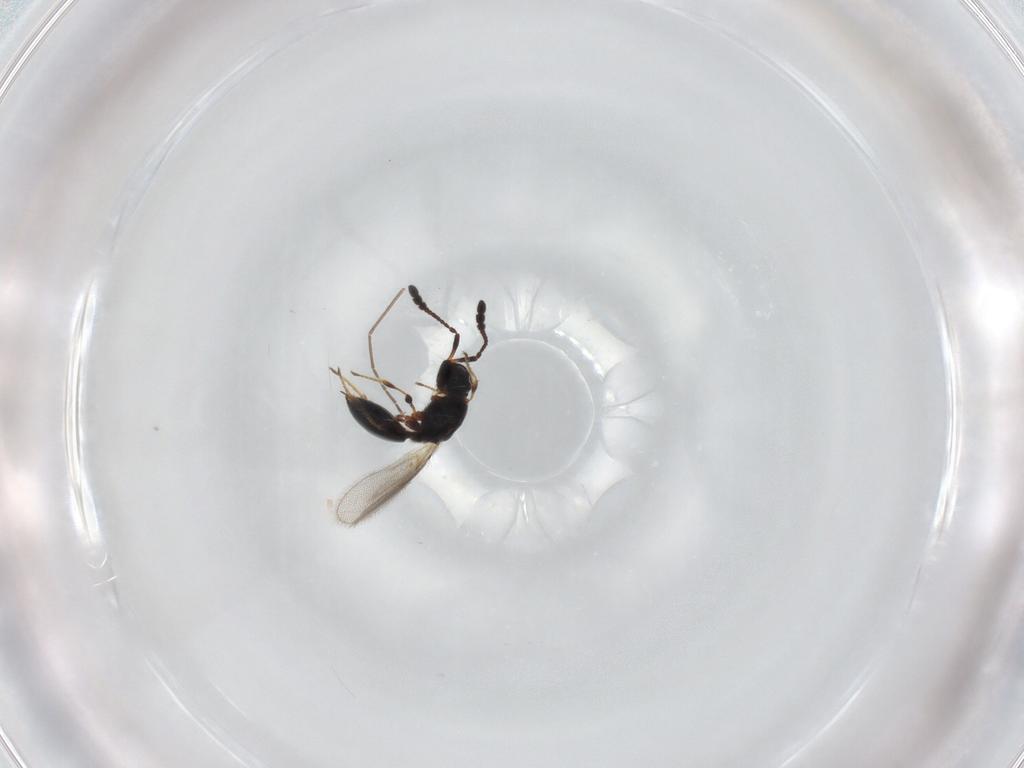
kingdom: Animalia
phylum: Arthropoda
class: Insecta
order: Hymenoptera
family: Diapriidae
